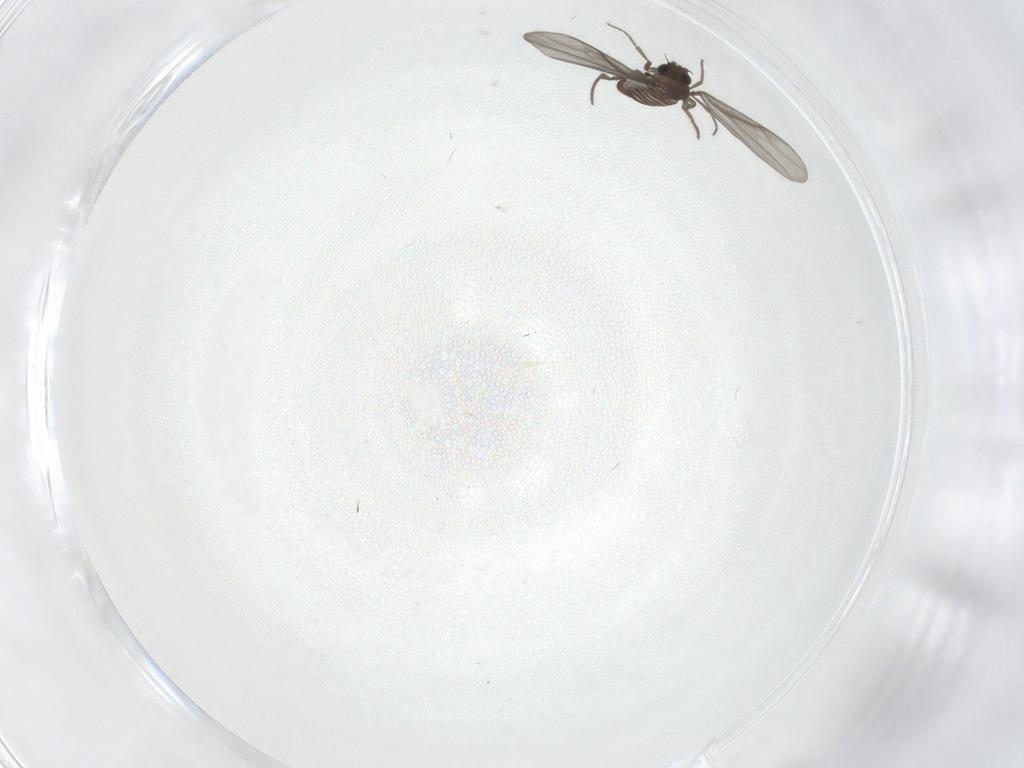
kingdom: Animalia
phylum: Arthropoda
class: Insecta
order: Diptera
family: Phoridae
